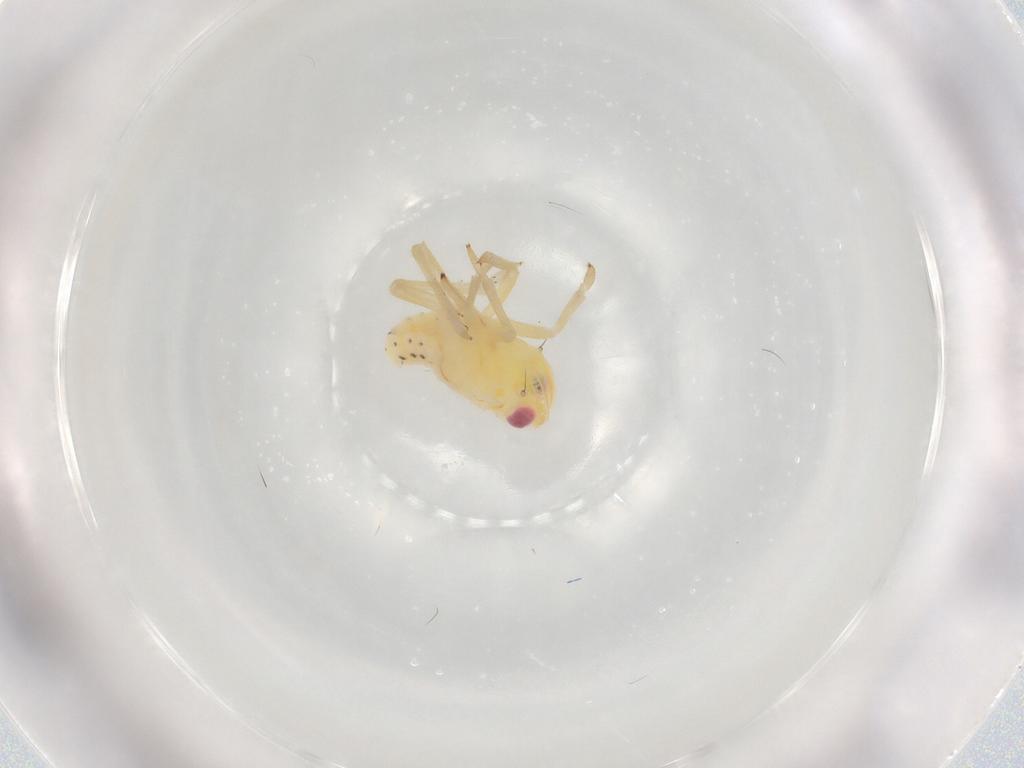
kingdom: Animalia
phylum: Arthropoda
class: Insecta
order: Hemiptera
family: Tropiduchidae
